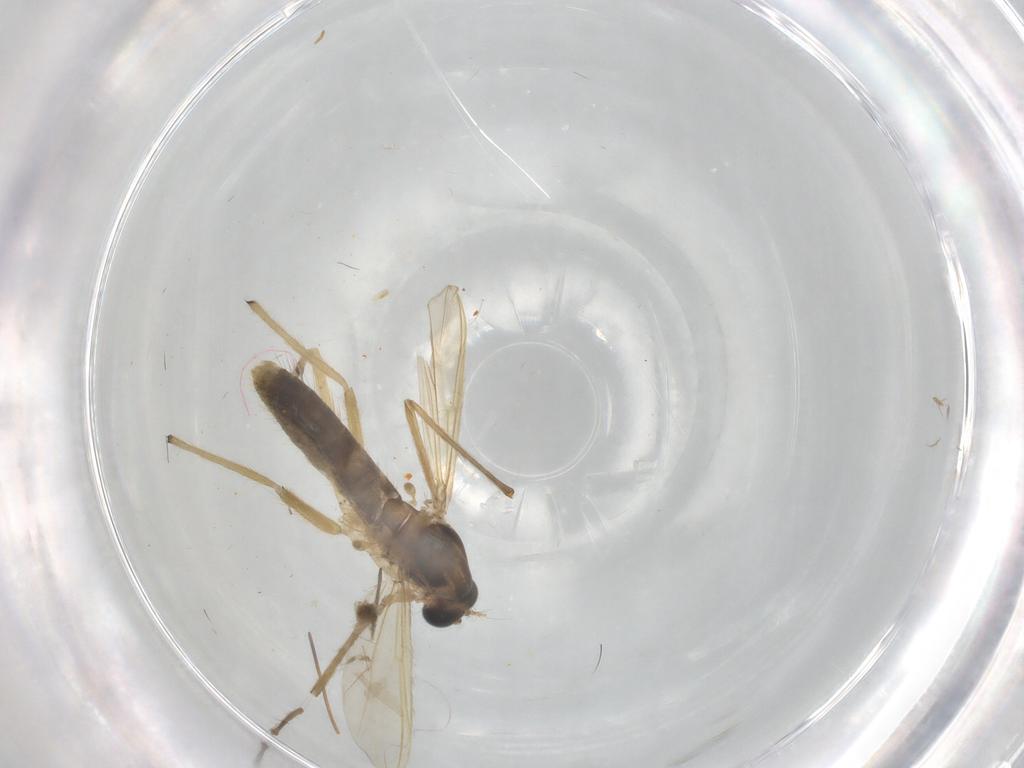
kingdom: Animalia
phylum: Arthropoda
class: Insecta
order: Diptera
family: Chironomidae
